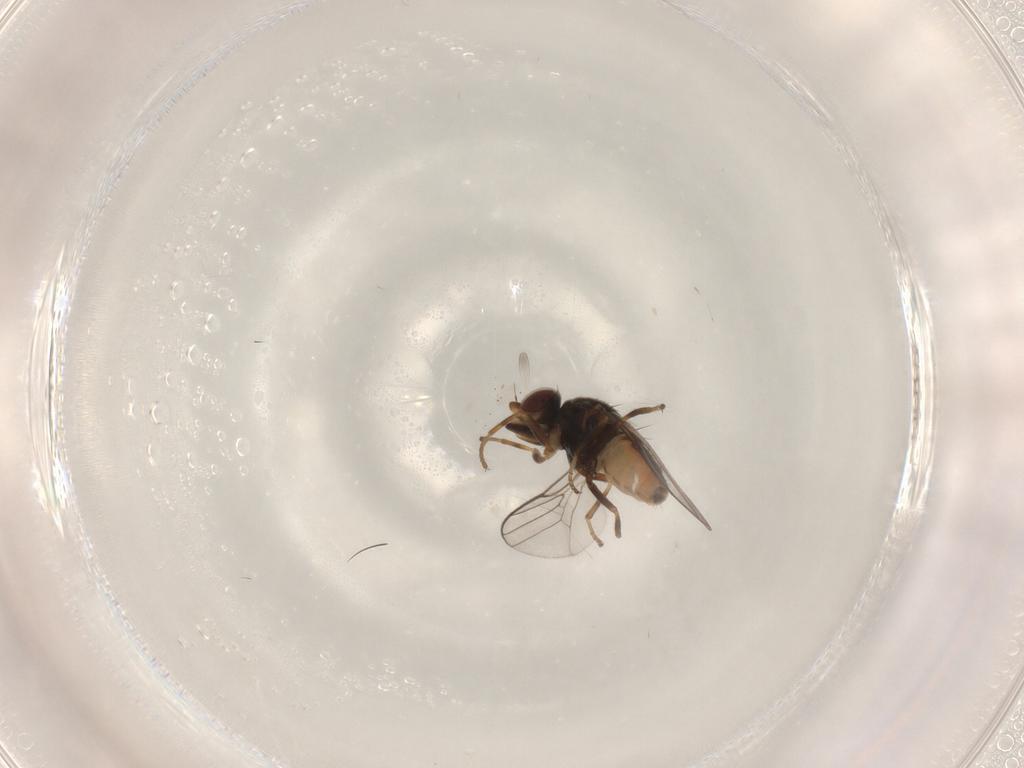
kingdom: Animalia
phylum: Arthropoda
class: Insecta
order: Diptera
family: Chloropidae
